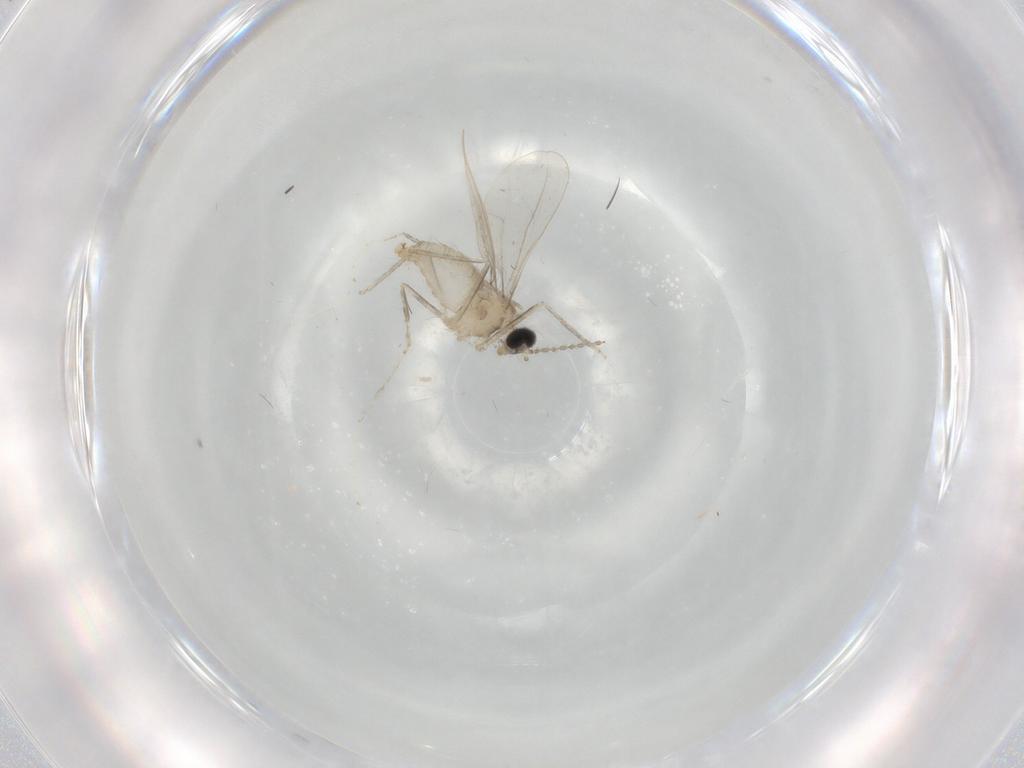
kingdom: Animalia
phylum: Arthropoda
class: Insecta
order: Diptera
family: Cecidomyiidae
